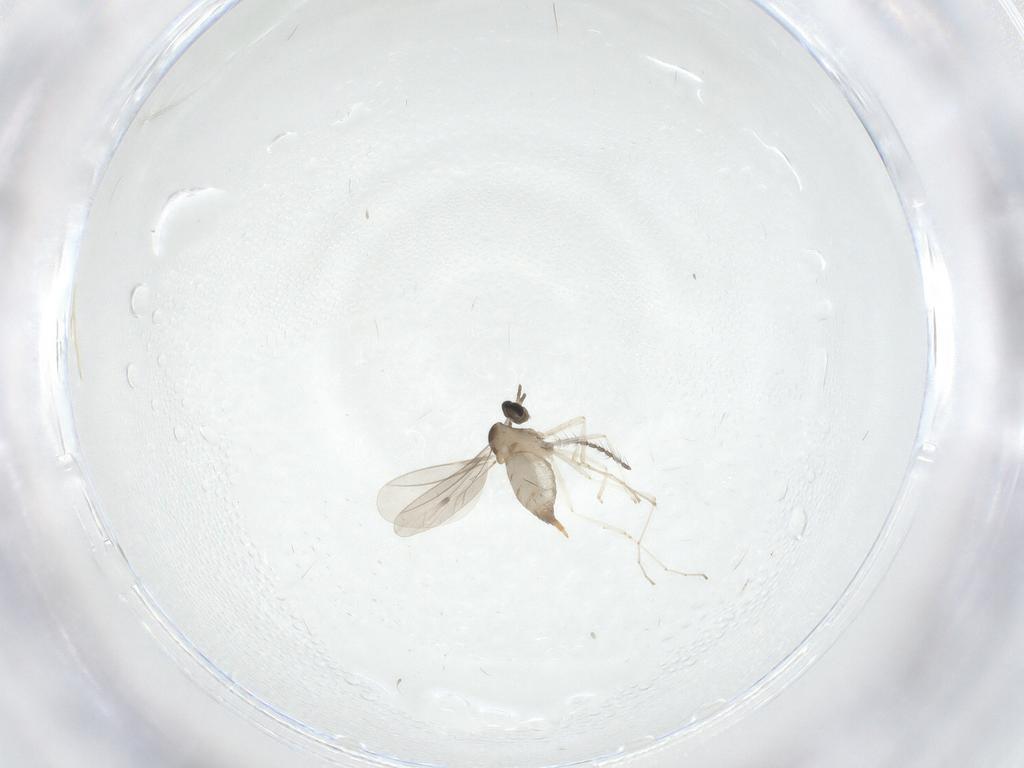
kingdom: Animalia
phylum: Arthropoda
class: Insecta
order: Diptera
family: Cecidomyiidae
